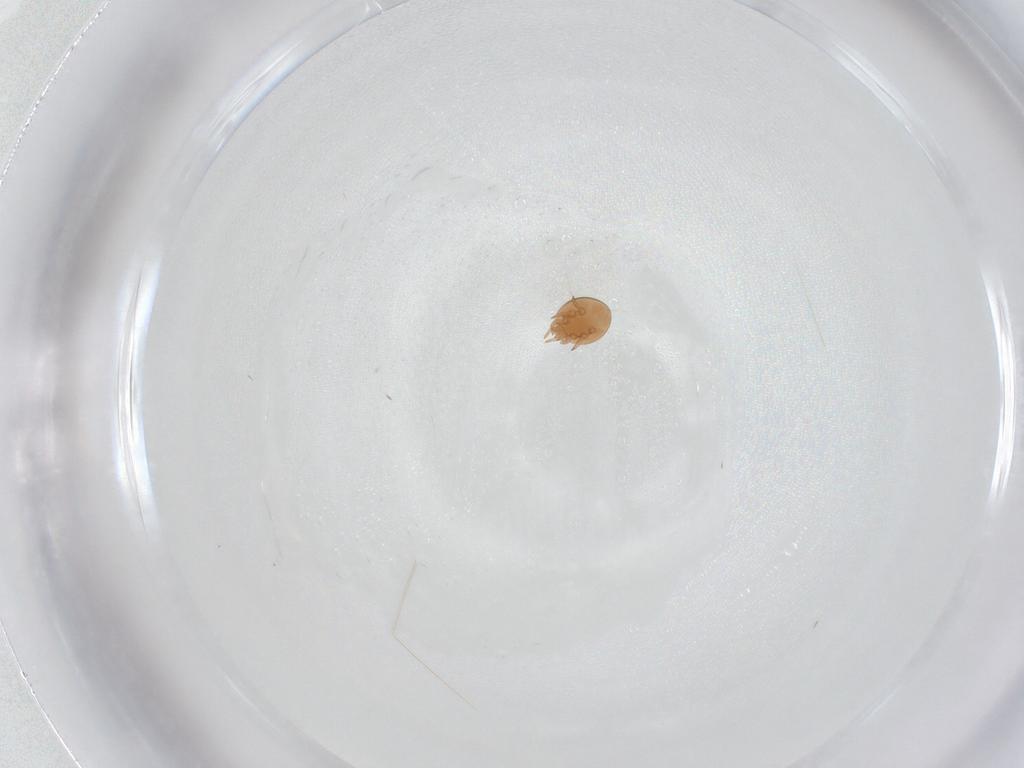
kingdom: Animalia
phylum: Arthropoda
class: Arachnida
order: Mesostigmata
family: Trematuridae
